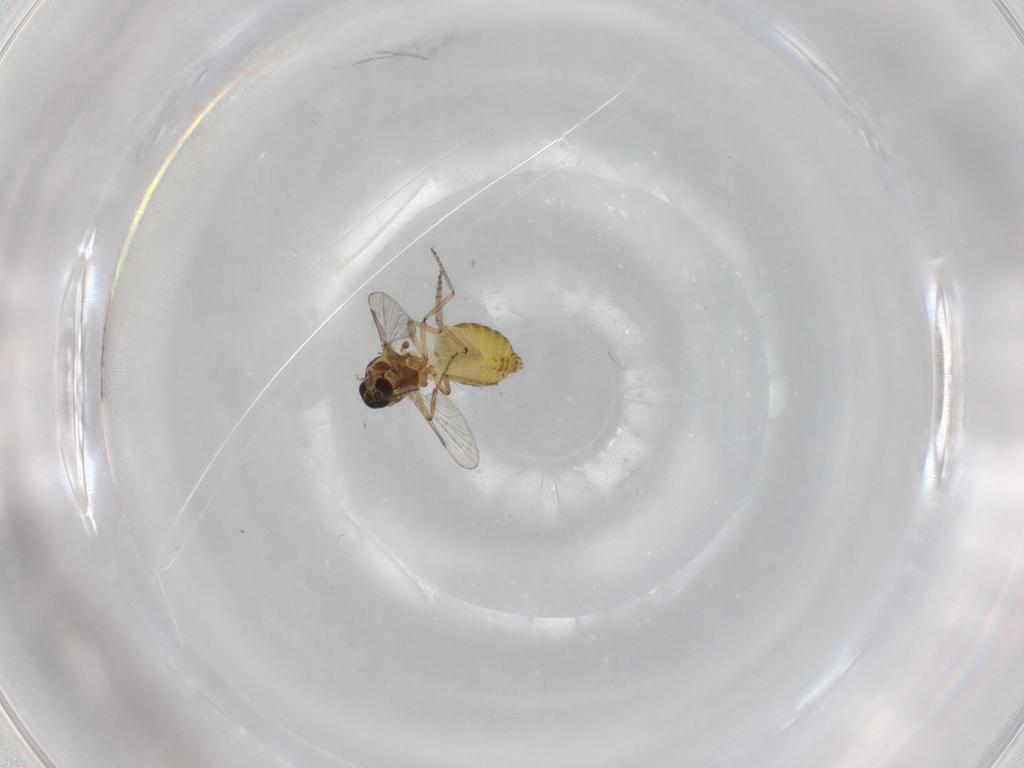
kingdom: Animalia
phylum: Arthropoda
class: Insecta
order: Diptera
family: Ceratopogonidae
